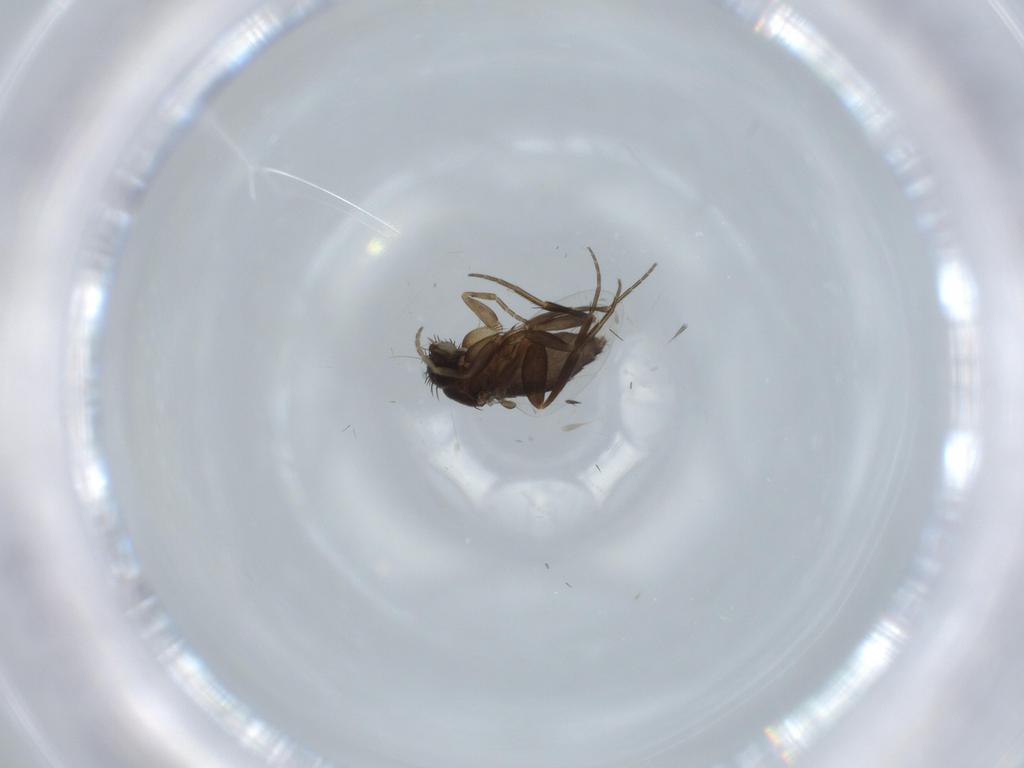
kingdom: Animalia
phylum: Arthropoda
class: Insecta
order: Diptera
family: Phoridae
